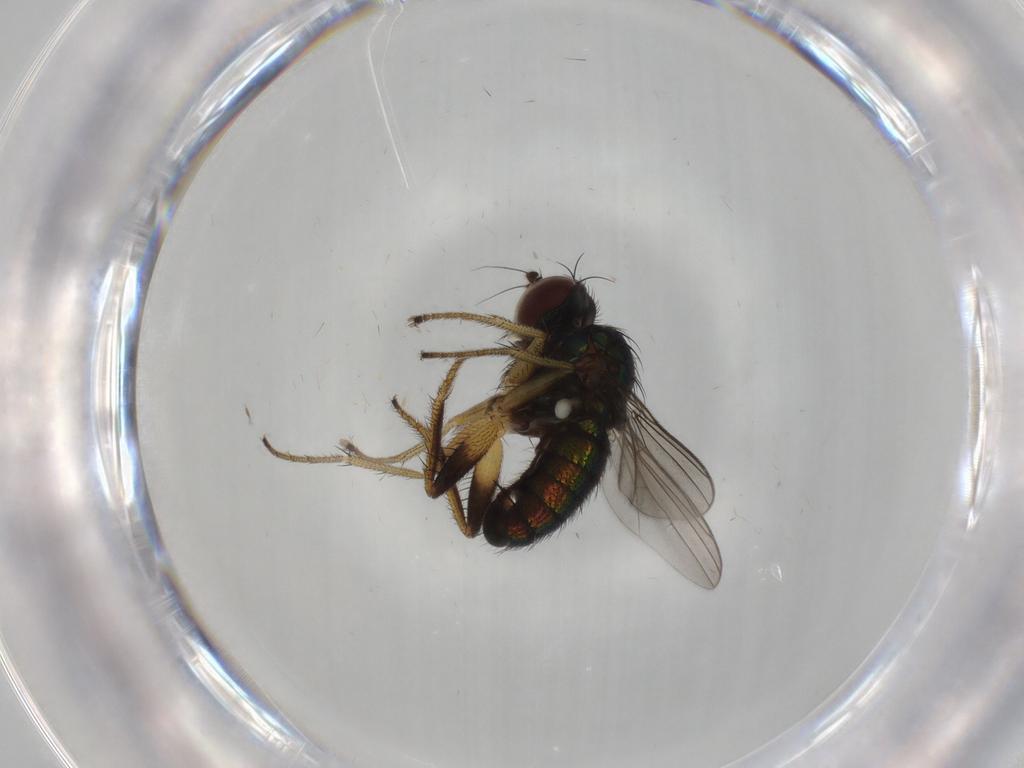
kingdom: Animalia
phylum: Arthropoda
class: Insecta
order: Diptera
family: Dolichopodidae
